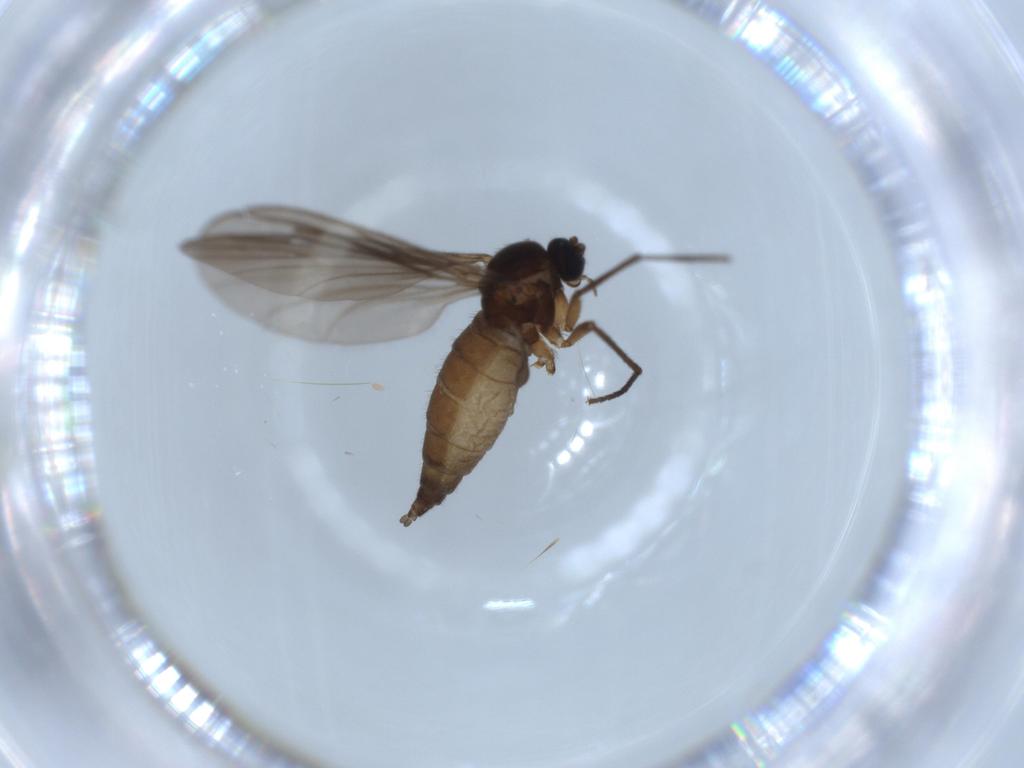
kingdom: Animalia
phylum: Arthropoda
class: Insecta
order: Diptera
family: Sciaridae
